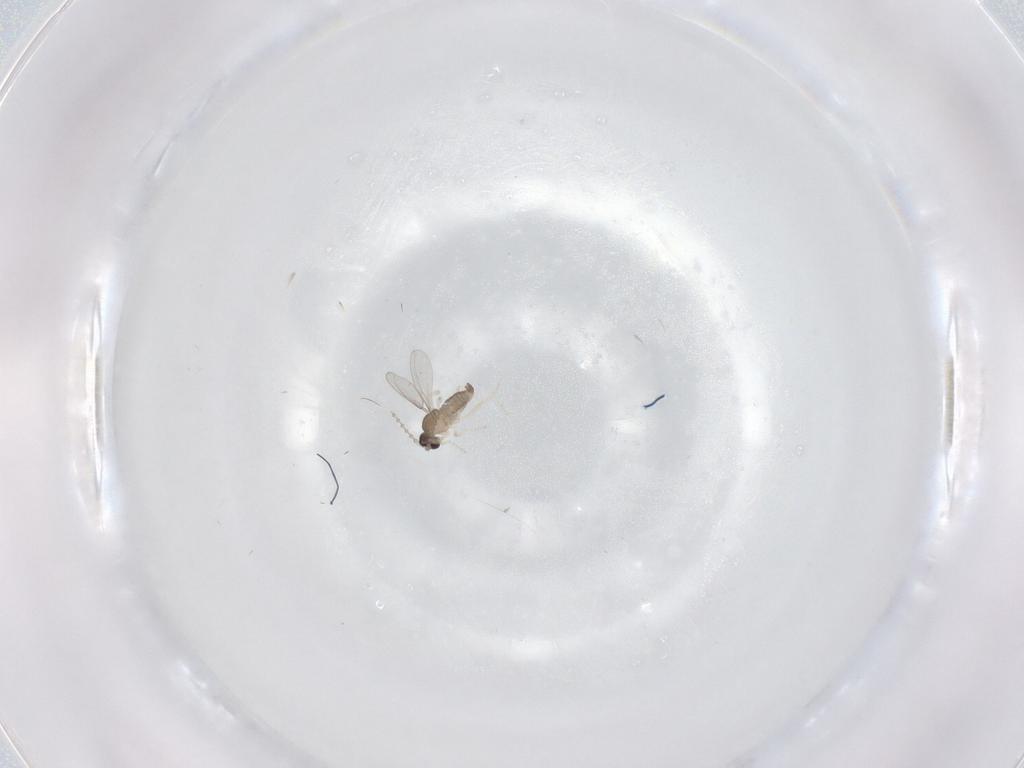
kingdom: Animalia
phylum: Arthropoda
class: Insecta
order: Diptera
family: Cecidomyiidae
